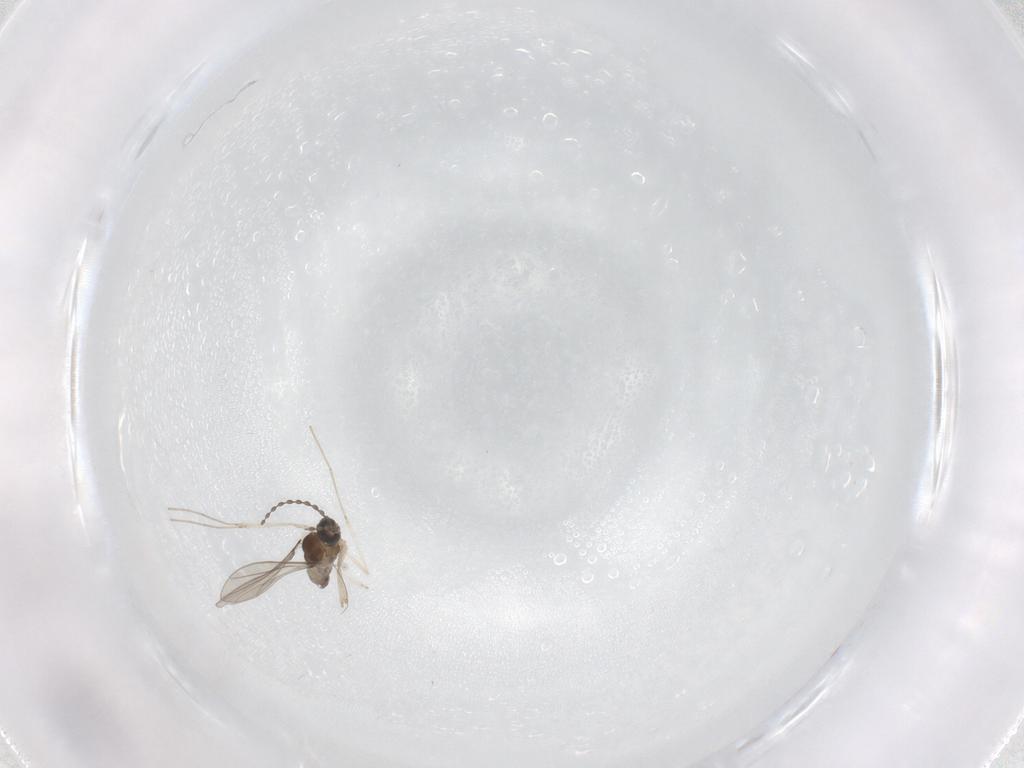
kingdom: Animalia
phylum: Arthropoda
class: Insecta
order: Diptera
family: Cecidomyiidae
